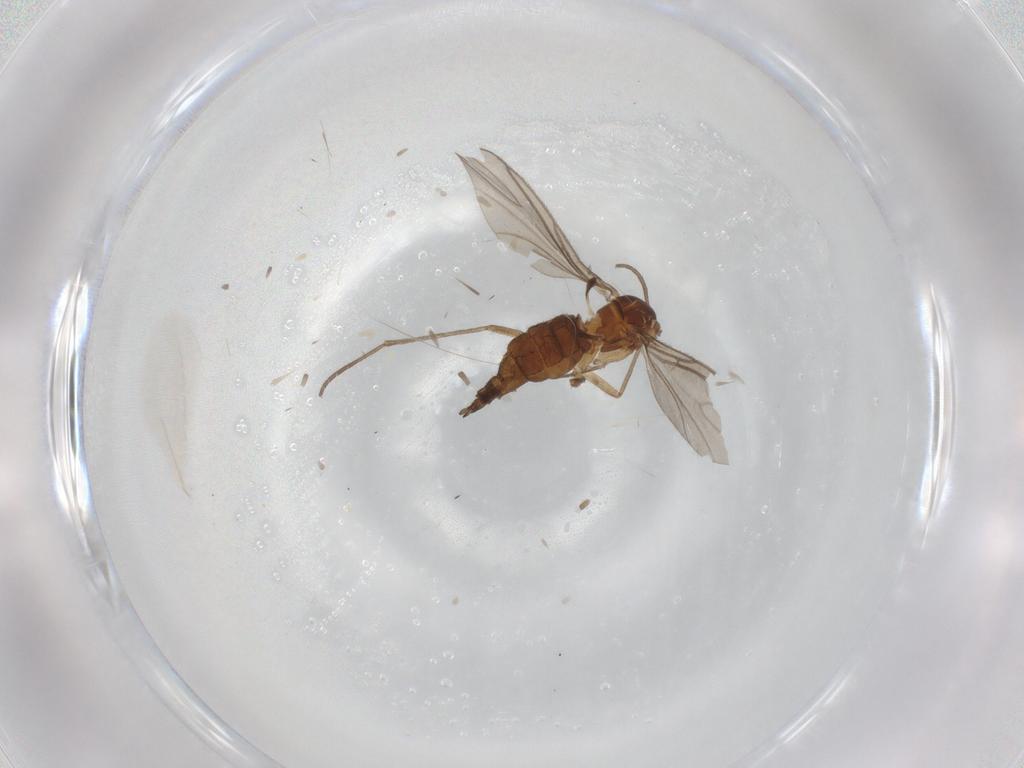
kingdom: Animalia
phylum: Arthropoda
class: Insecta
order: Diptera
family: Sciaridae
